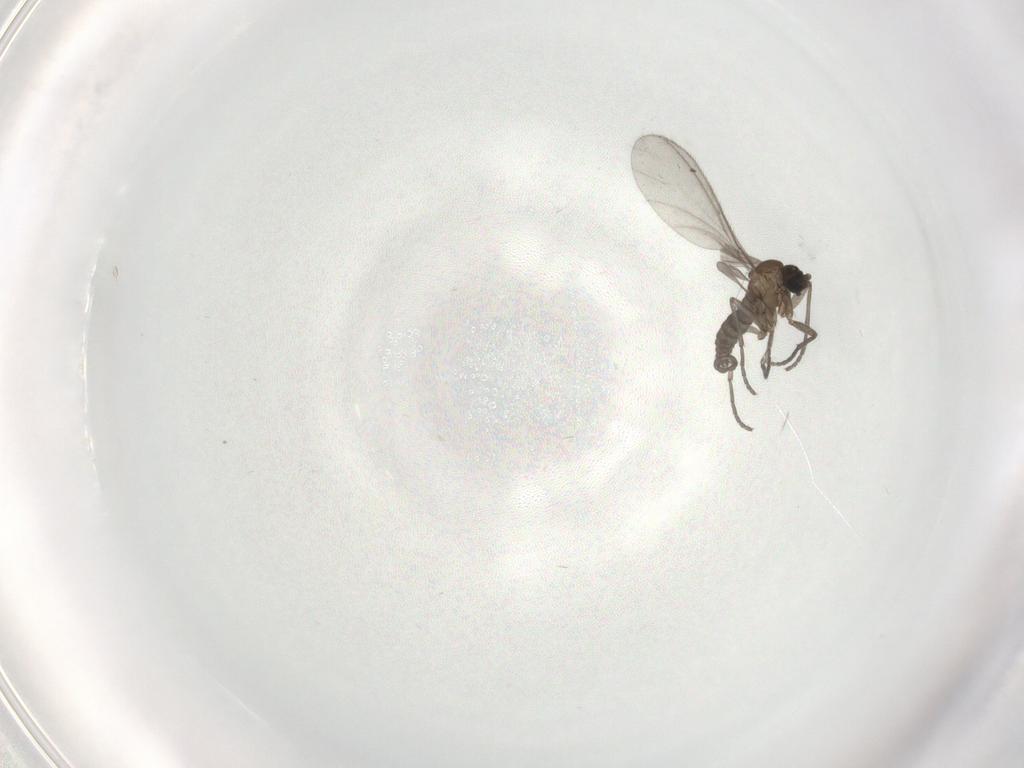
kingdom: Animalia
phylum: Arthropoda
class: Insecta
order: Diptera
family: Sciaridae
